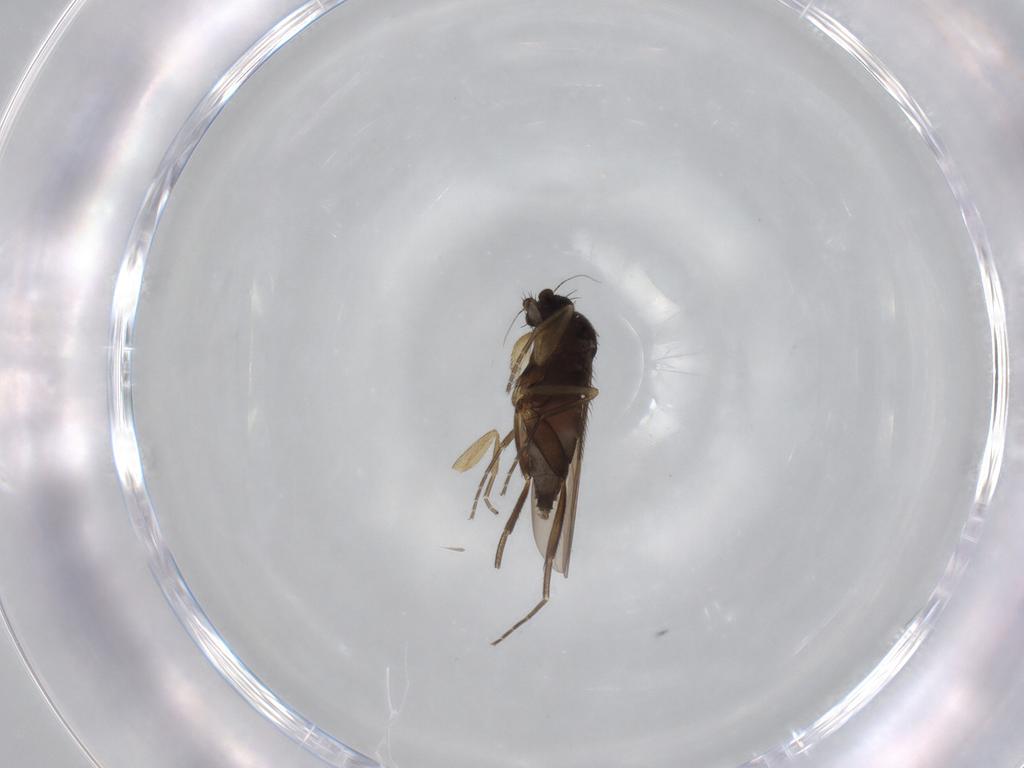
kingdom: Animalia
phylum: Arthropoda
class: Insecta
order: Diptera
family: Phoridae
